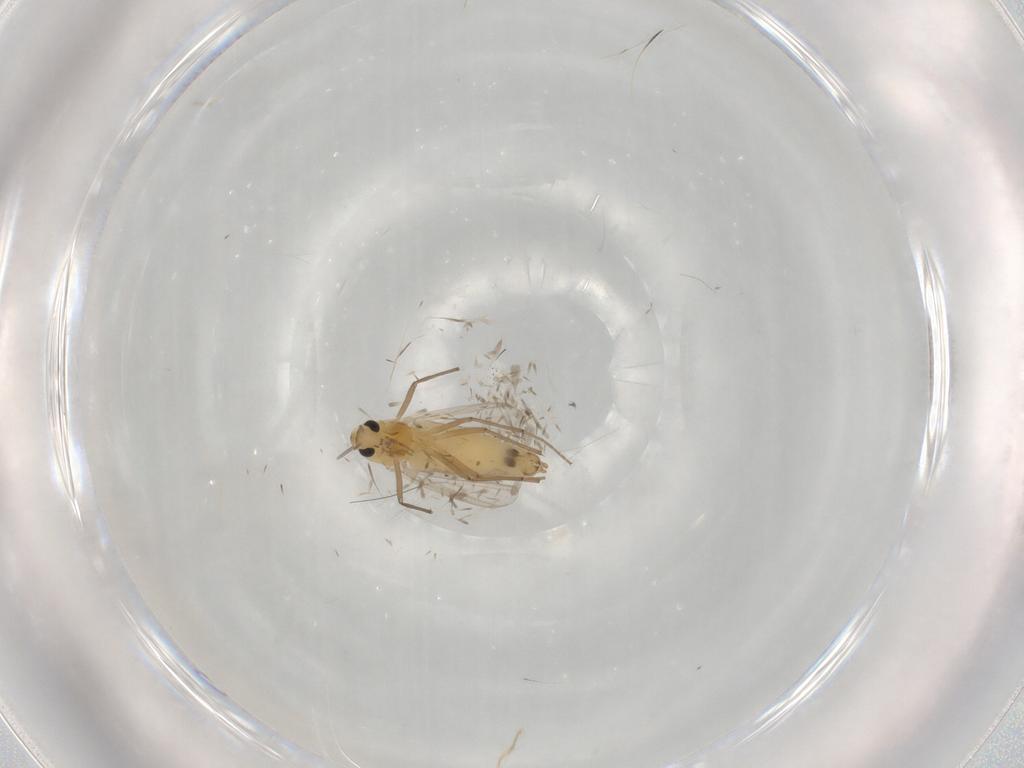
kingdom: Animalia
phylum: Arthropoda
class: Insecta
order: Diptera
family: Chironomidae
